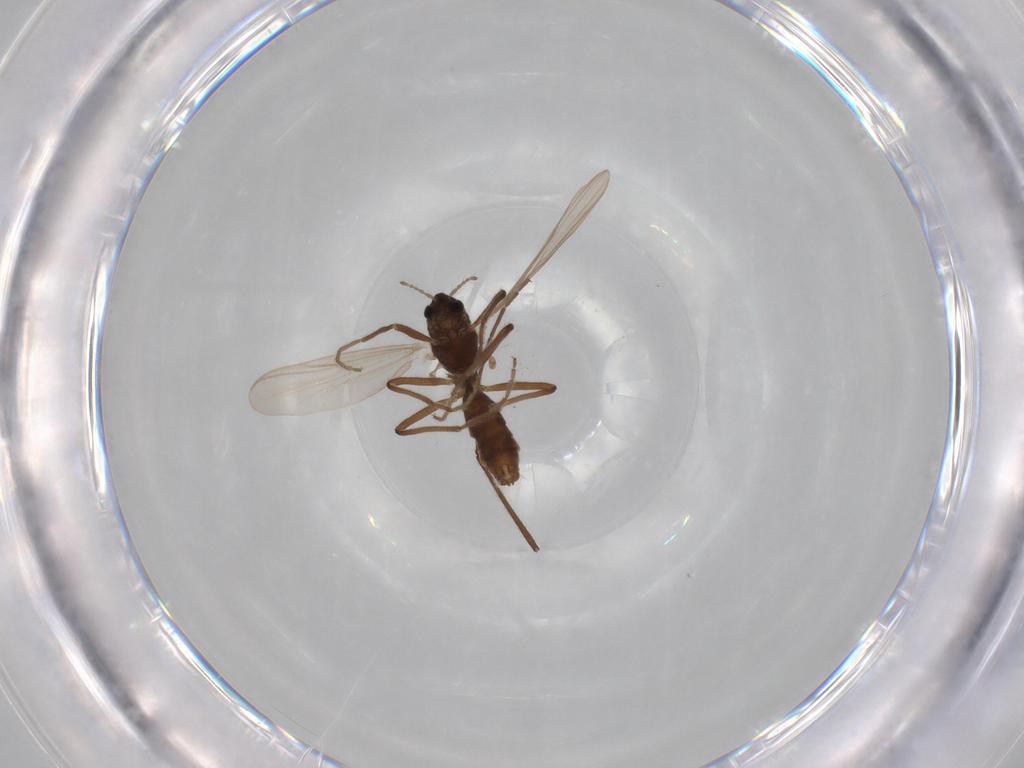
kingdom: Animalia
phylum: Arthropoda
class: Insecta
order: Diptera
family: Chironomidae
